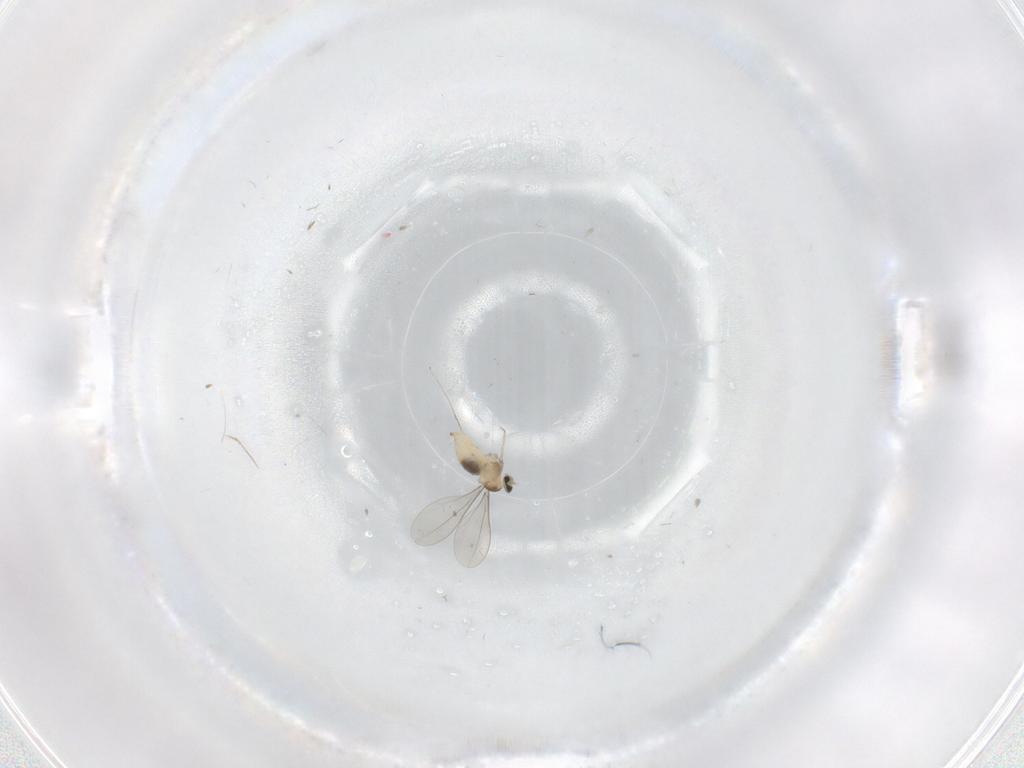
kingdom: Animalia
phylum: Arthropoda
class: Insecta
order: Diptera
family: Cecidomyiidae
